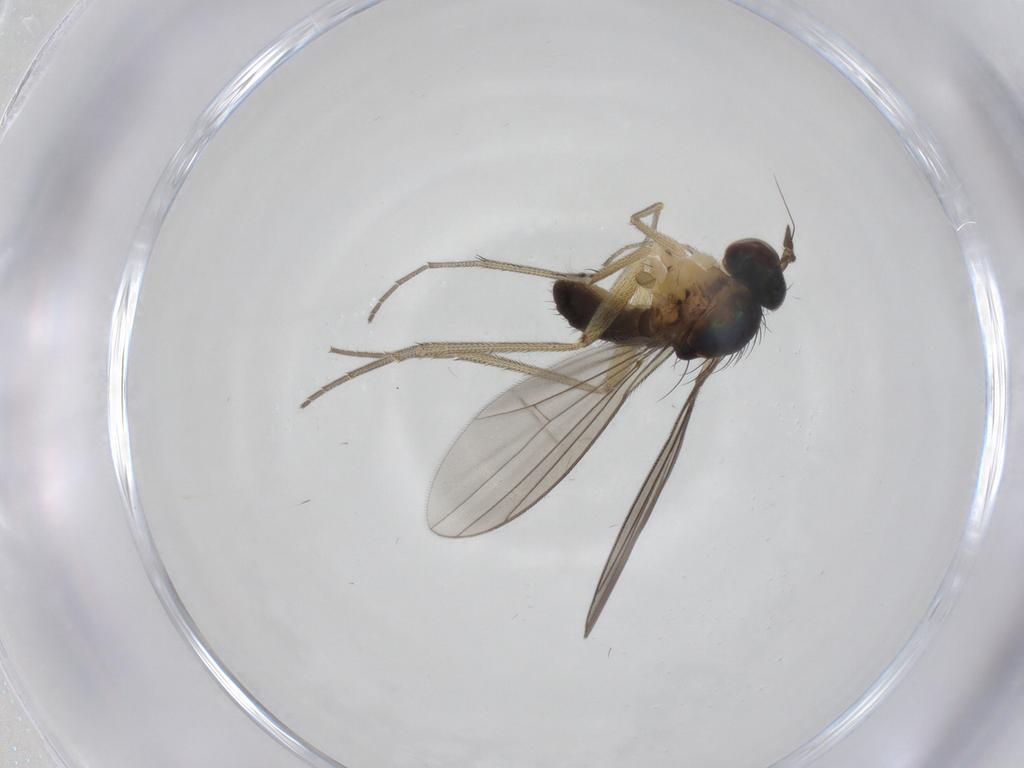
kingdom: Animalia
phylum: Arthropoda
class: Insecta
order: Diptera
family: Dolichopodidae
